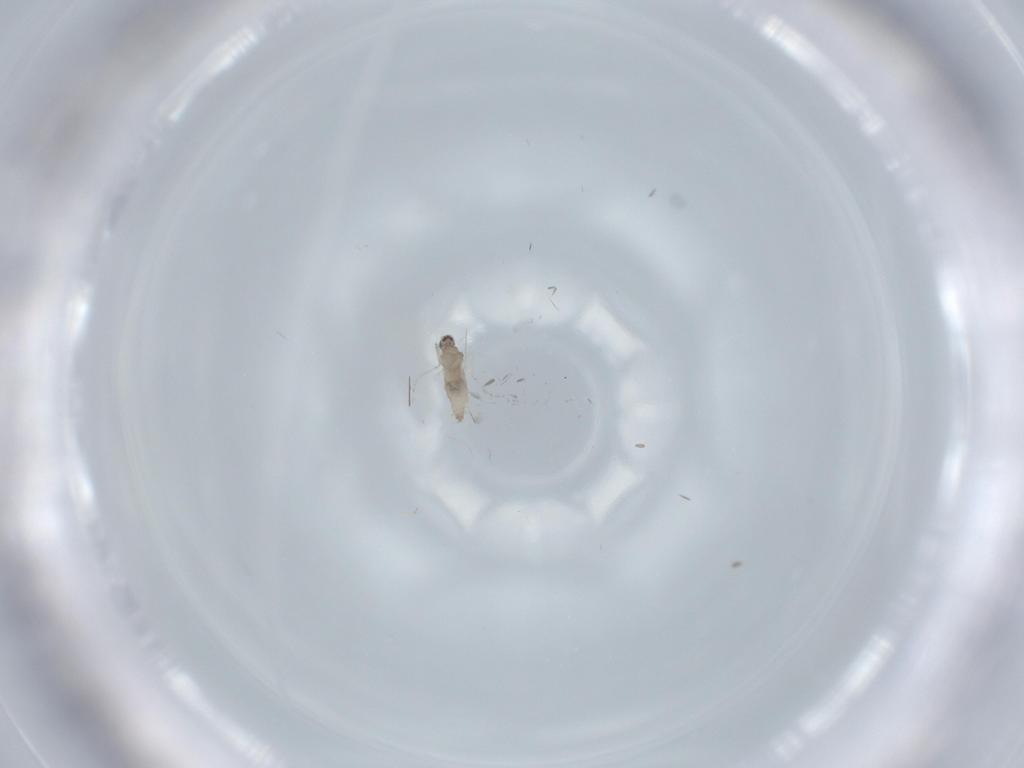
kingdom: Animalia
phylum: Arthropoda
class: Insecta
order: Diptera
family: Cecidomyiidae
